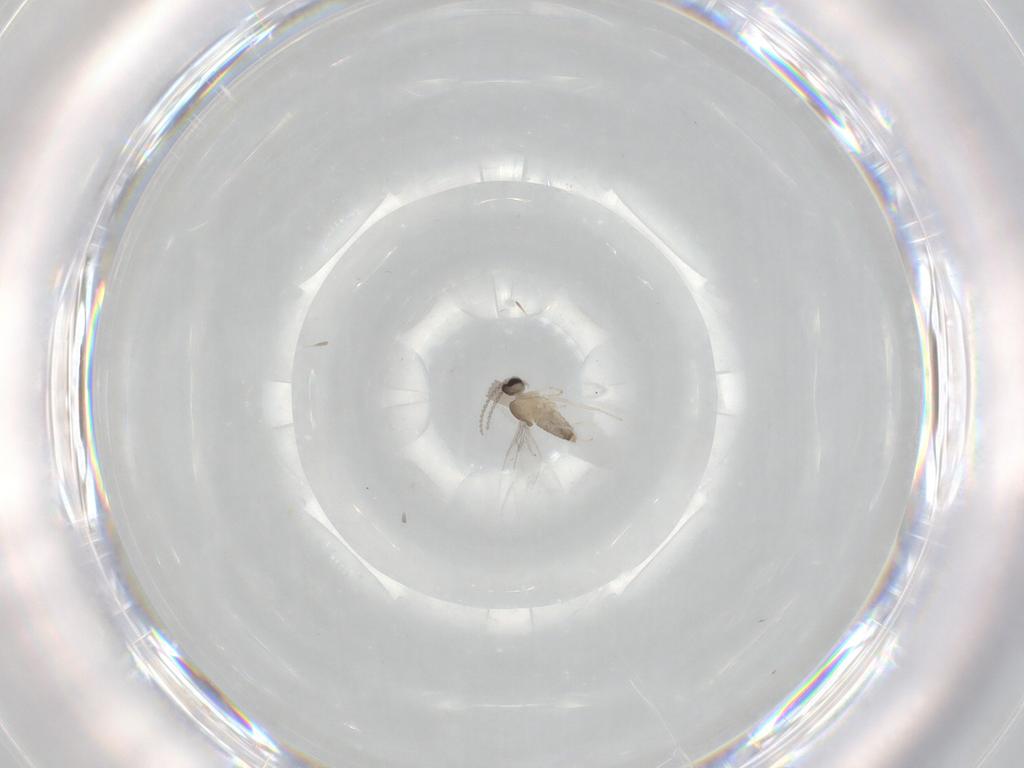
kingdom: Animalia
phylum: Arthropoda
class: Insecta
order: Diptera
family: Cecidomyiidae
